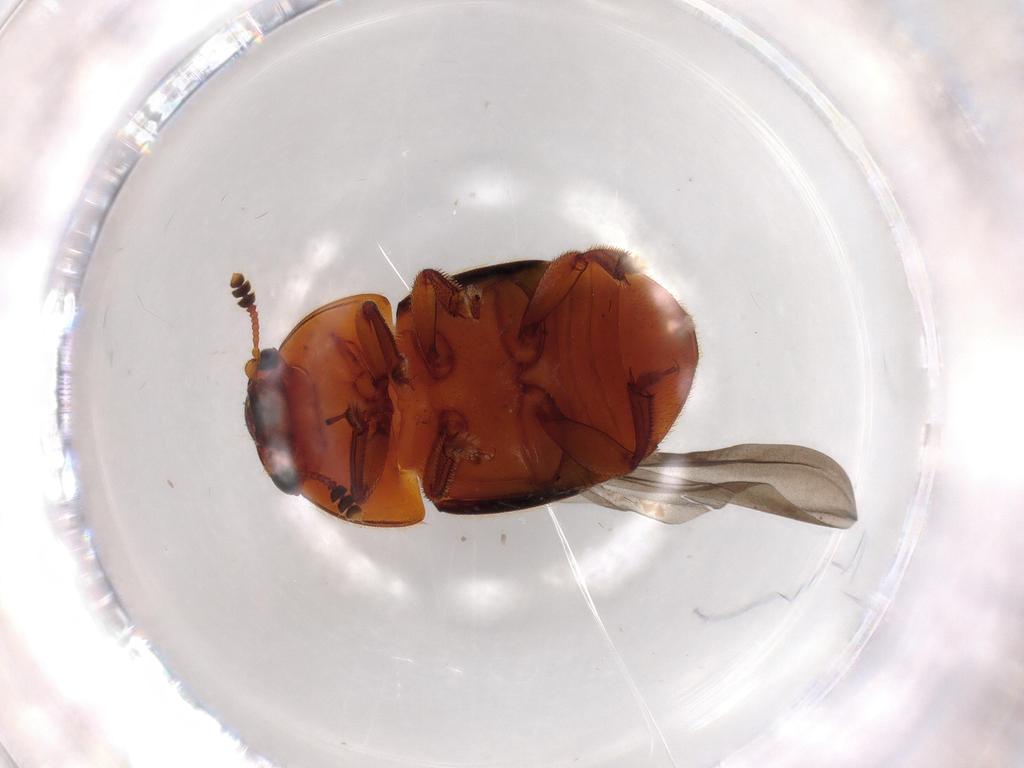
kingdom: Animalia
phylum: Arthropoda
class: Insecta
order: Coleoptera
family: Nitidulidae
